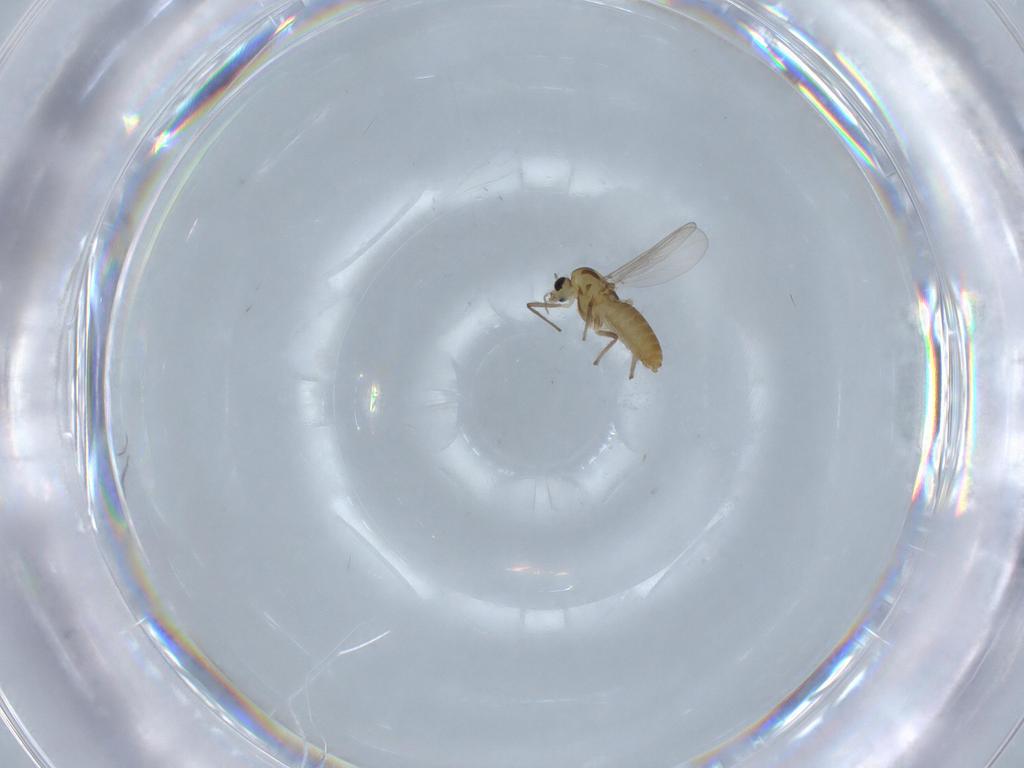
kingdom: Animalia
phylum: Arthropoda
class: Insecta
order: Diptera
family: Chironomidae
